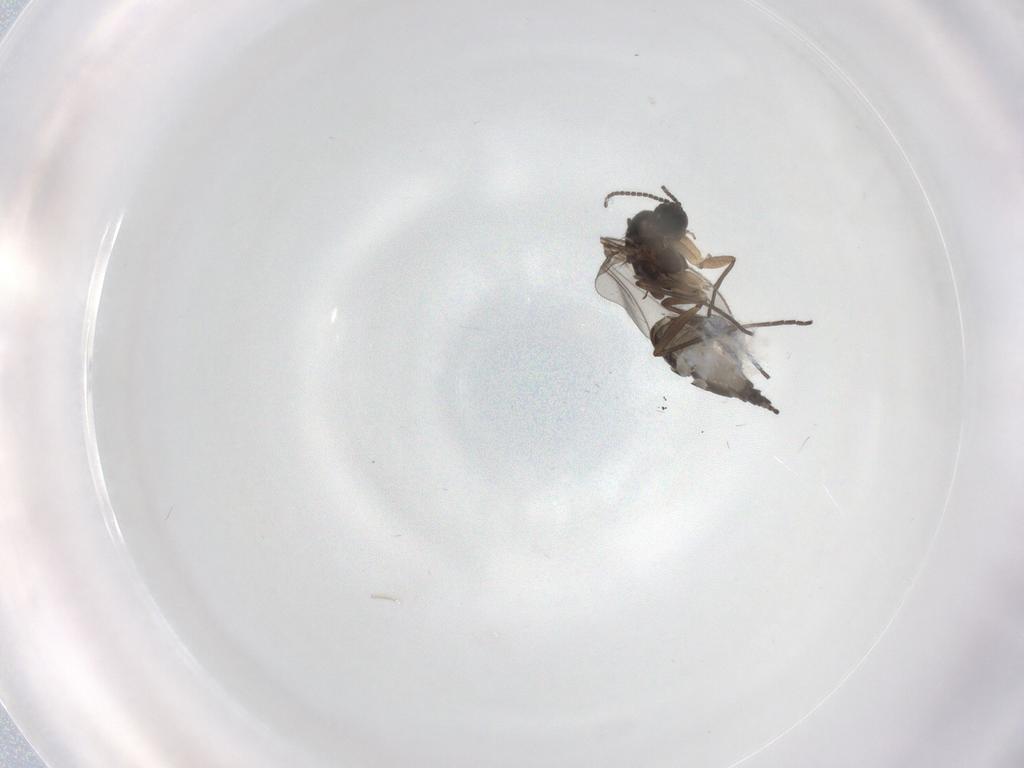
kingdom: Animalia
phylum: Arthropoda
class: Insecta
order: Diptera
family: Sciaridae
